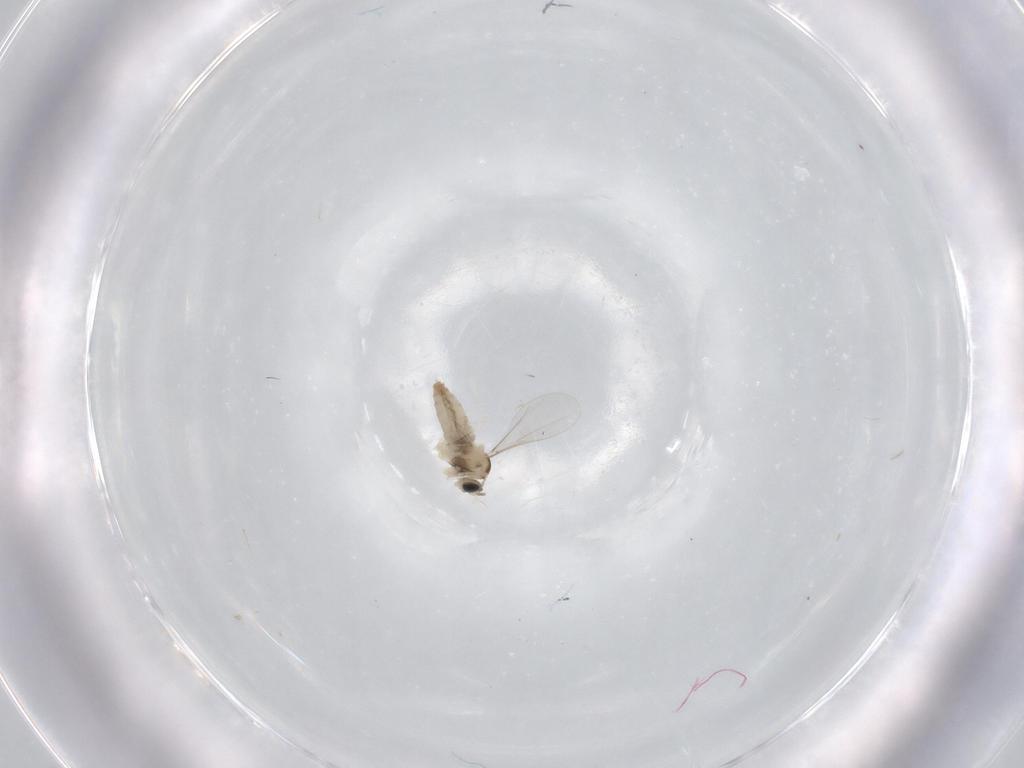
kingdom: Animalia
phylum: Arthropoda
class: Insecta
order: Diptera
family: Cecidomyiidae
